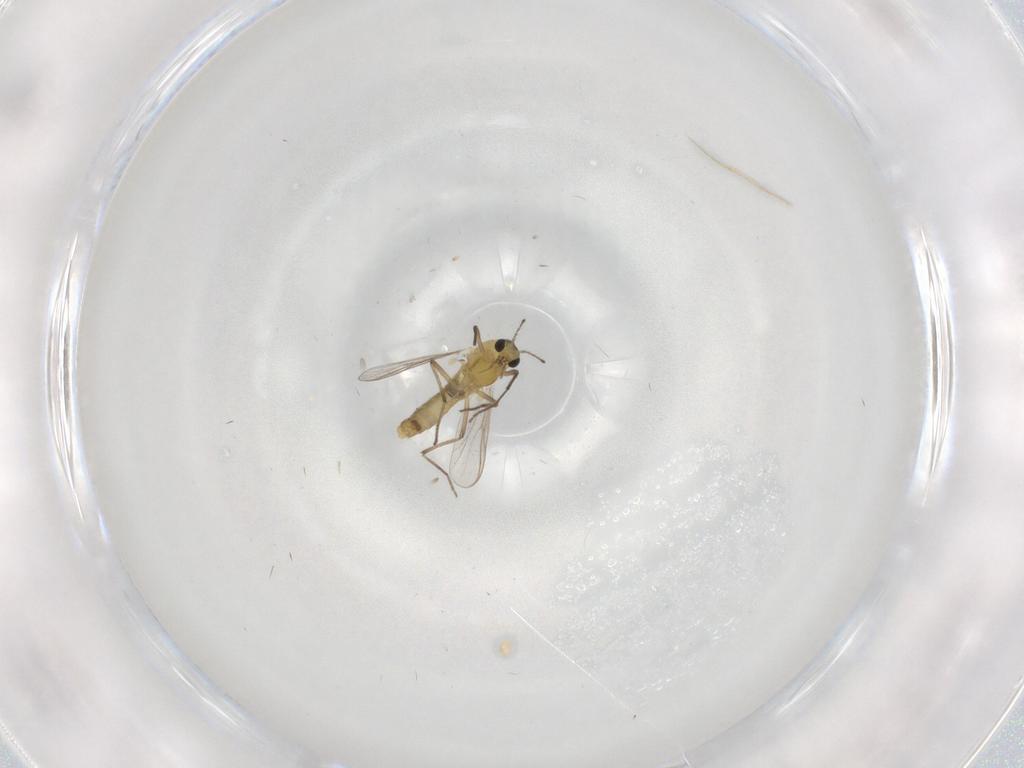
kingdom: Animalia
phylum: Arthropoda
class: Insecta
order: Diptera
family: Chironomidae
